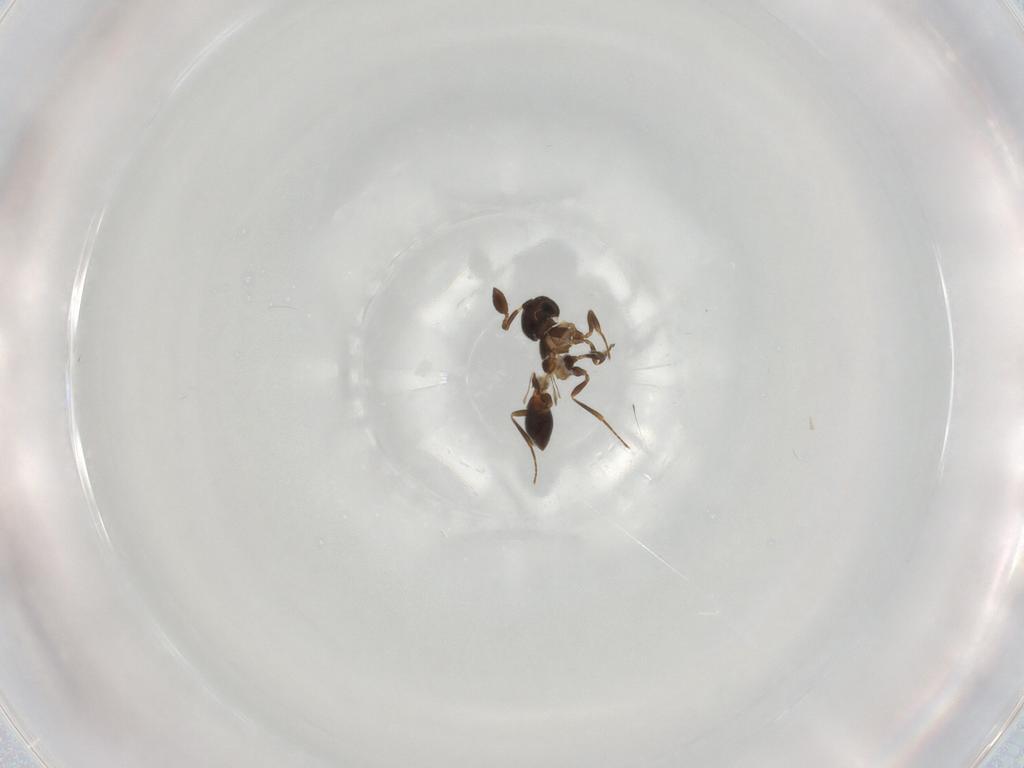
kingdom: Animalia
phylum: Arthropoda
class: Insecta
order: Hymenoptera
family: Scelionidae
